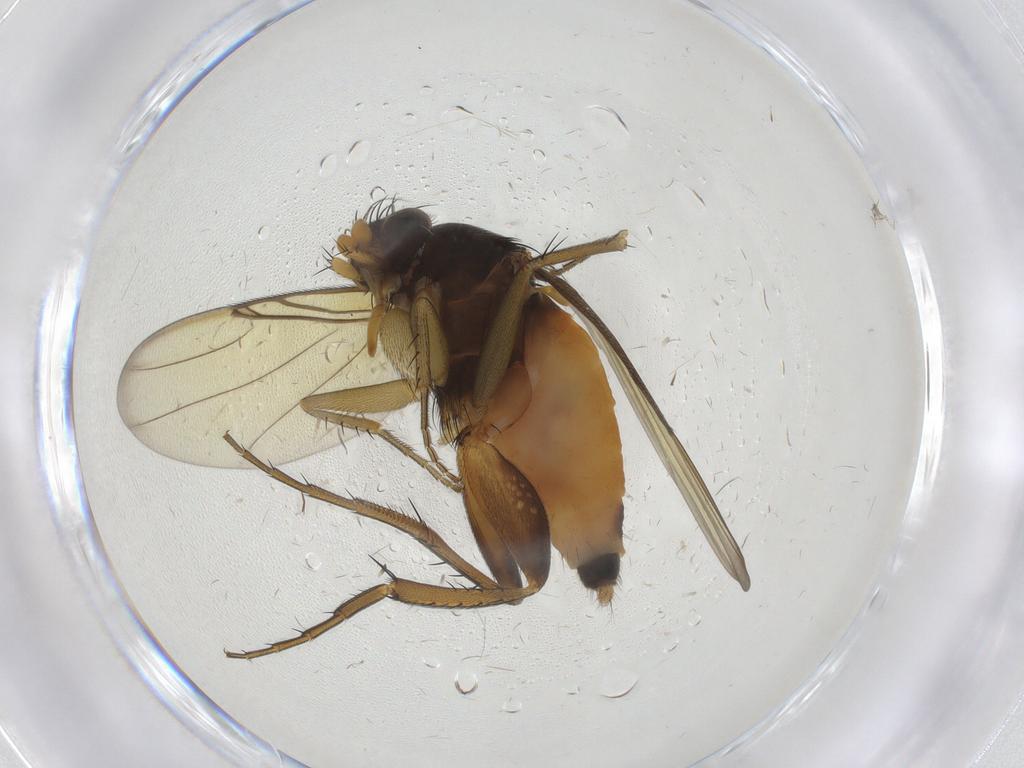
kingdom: Animalia
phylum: Arthropoda
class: Insecta
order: Diptera
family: Phoridae
